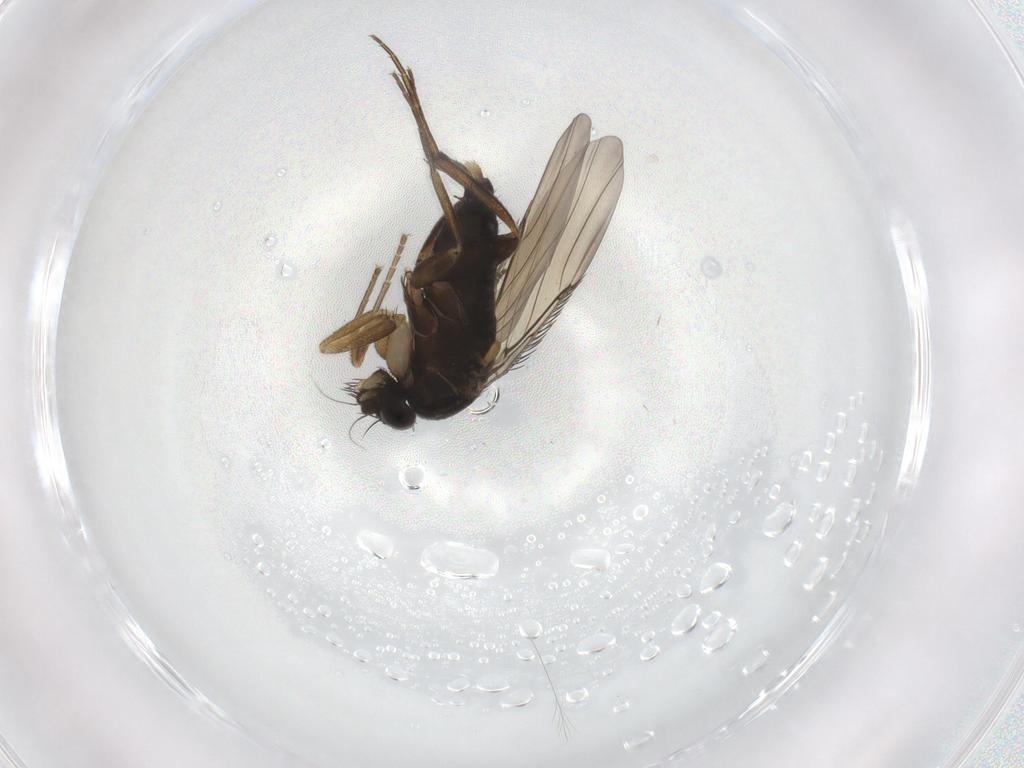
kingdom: Animalia
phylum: Arthropoda
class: Insecta
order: Diptera
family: Phoridae
